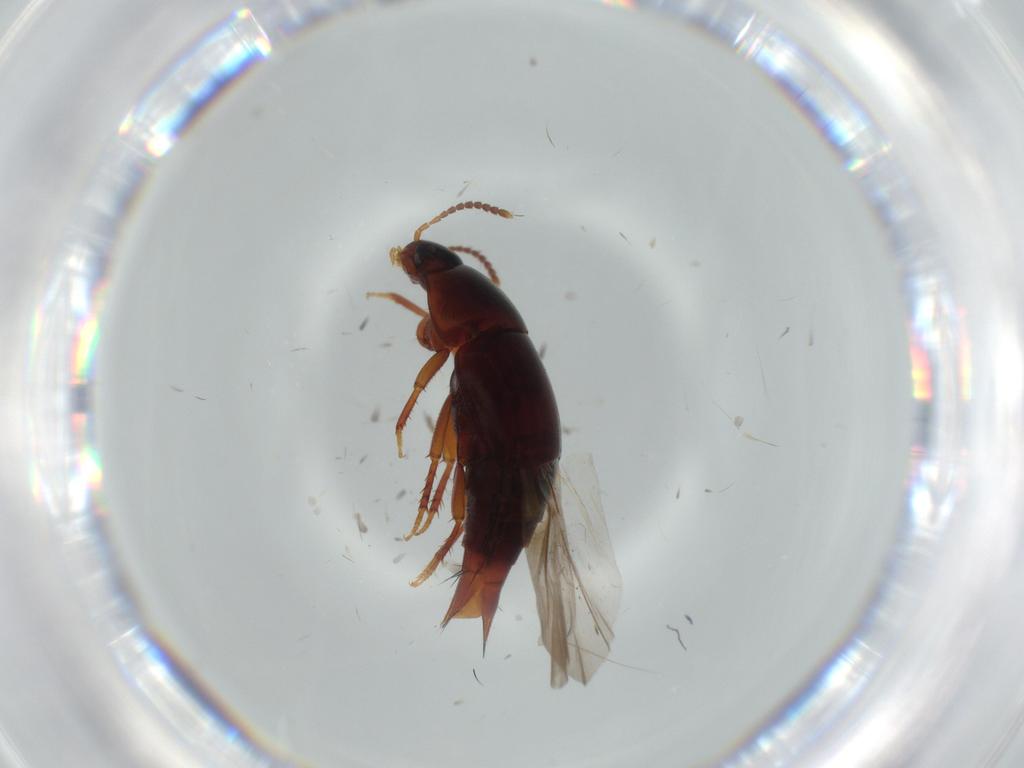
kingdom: Animalia
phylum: Arthropoda
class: Insecta
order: Coleoptera
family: Staphylinidae
